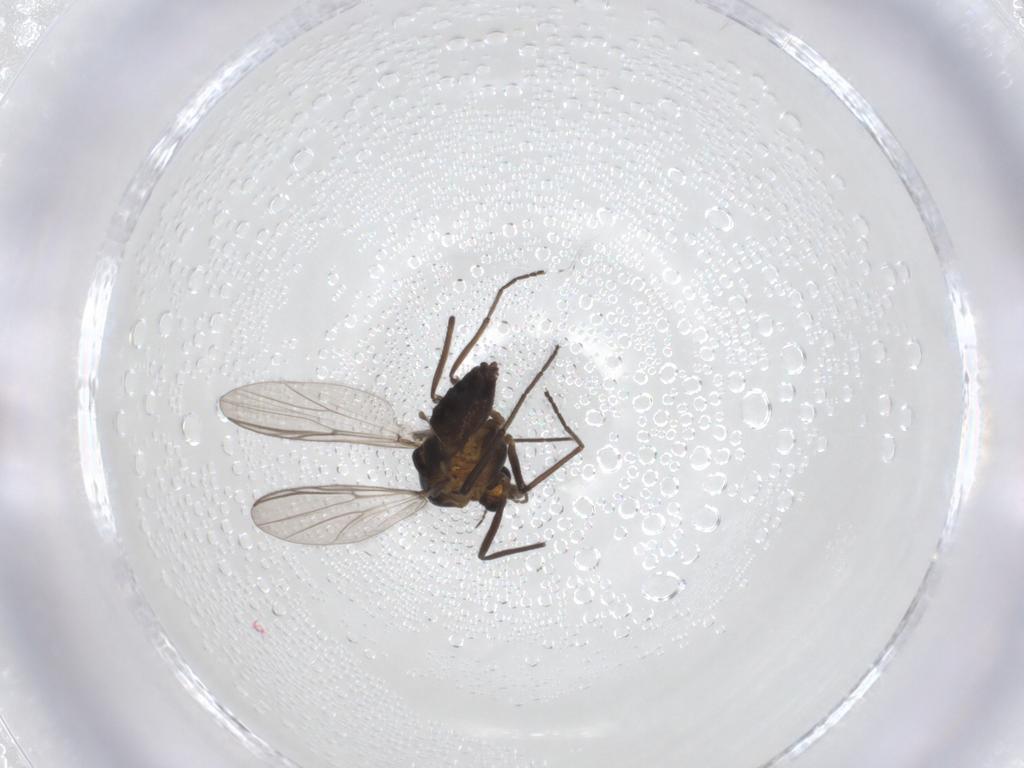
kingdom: Animalia
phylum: Arthropoda
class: Insecta
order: Diptera
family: Chironomidae
